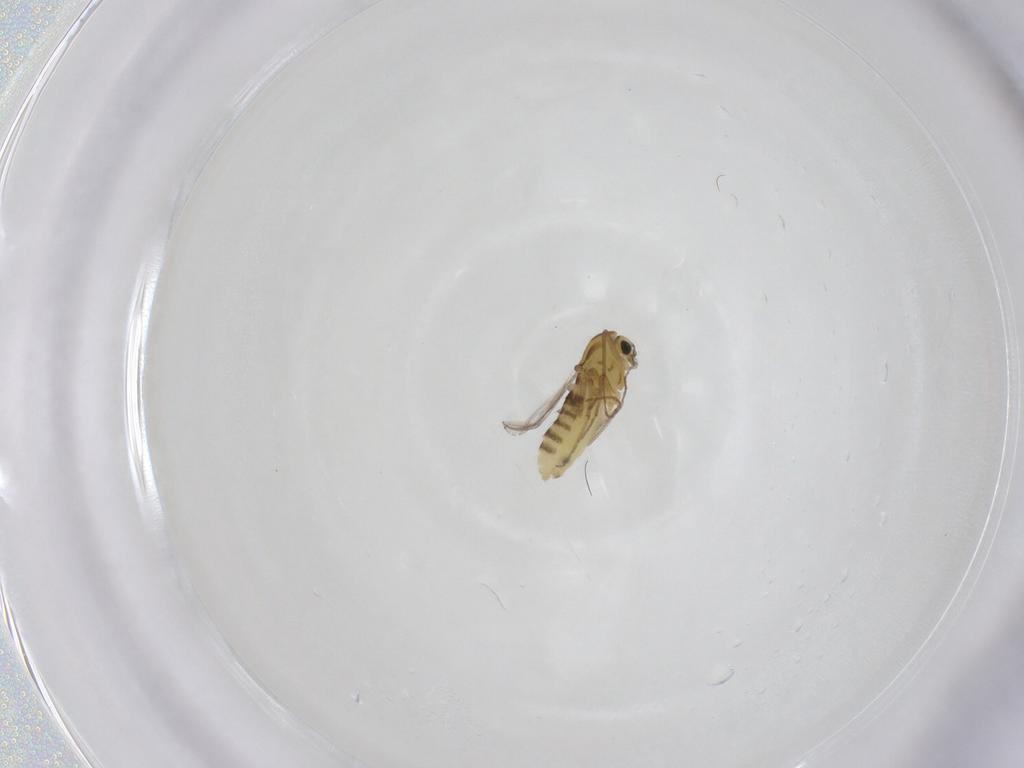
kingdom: Animalia
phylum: Arthropoda
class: Insecta
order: Diptera
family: Chironomidae
